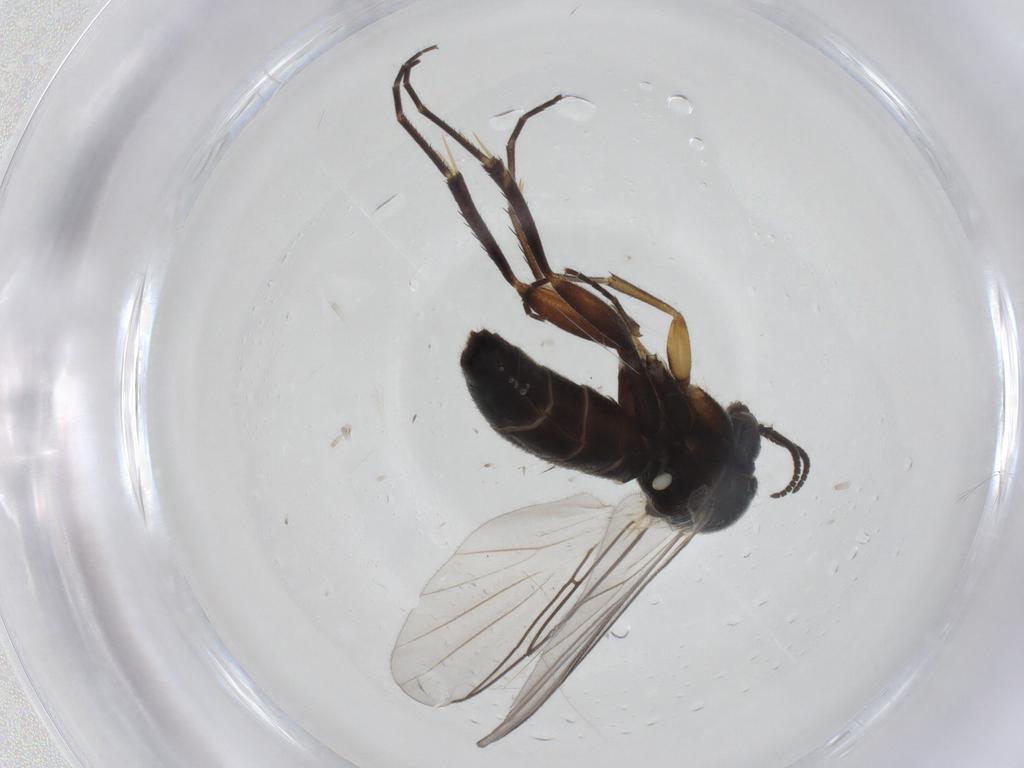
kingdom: Animalia
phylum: Arthropoda
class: Insecta
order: Diptera
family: Mycetophilidae
